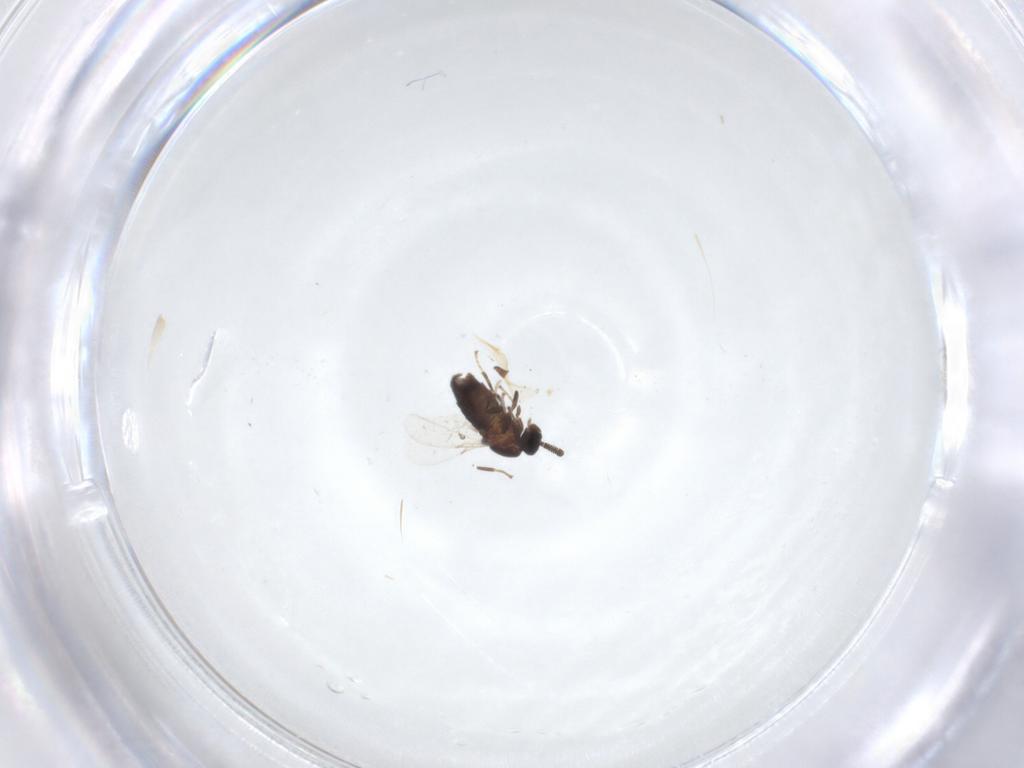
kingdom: Animalia
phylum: Arthropoda
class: Insecta
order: Diptera
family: Scatopsidae
